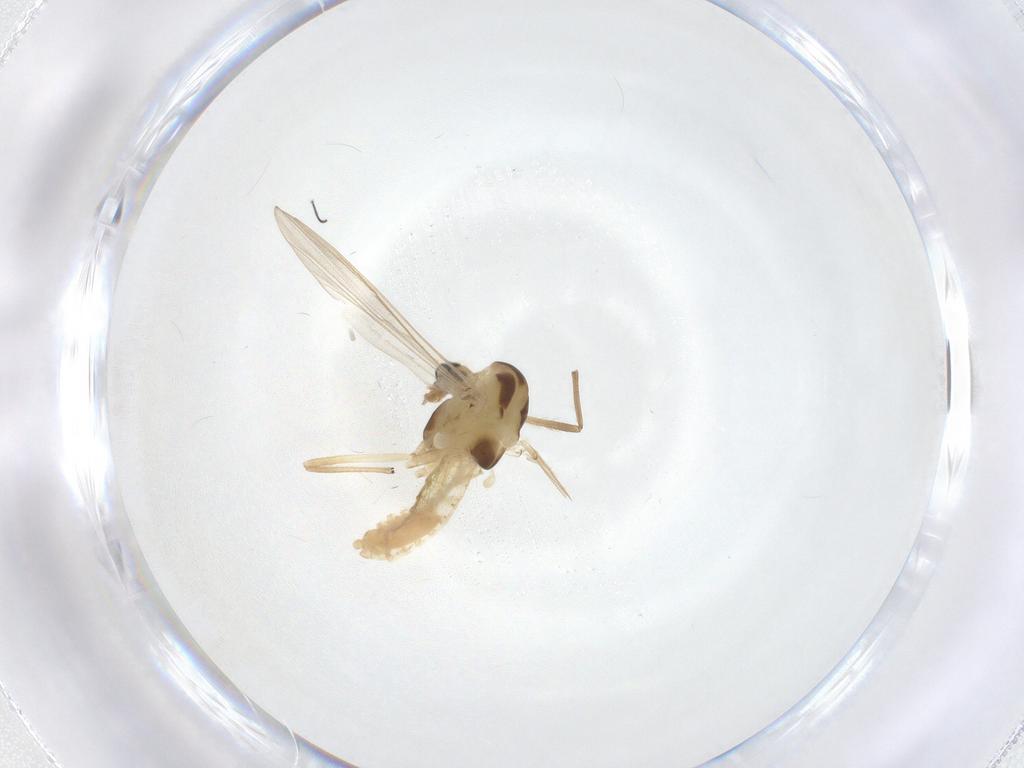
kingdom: Animalia
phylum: Arthropoda
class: Insecta
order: Diptera
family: Chironomidae
